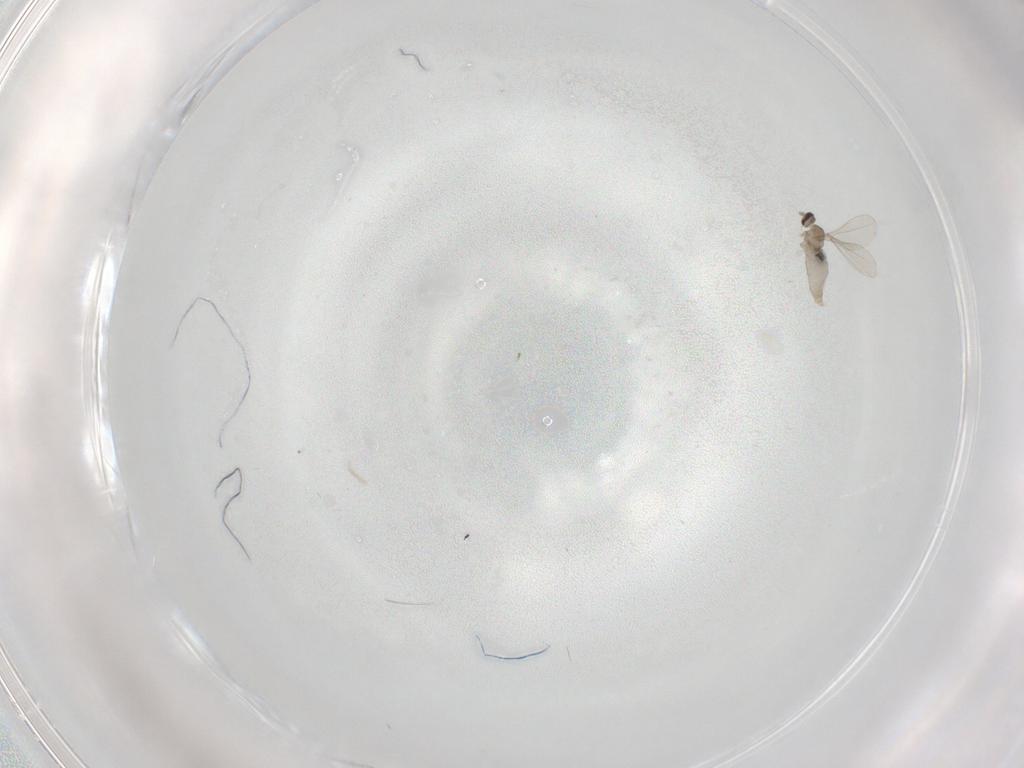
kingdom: Animalia
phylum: Arthropoda
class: Insecta
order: Diptera
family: Cecidomyiidae
